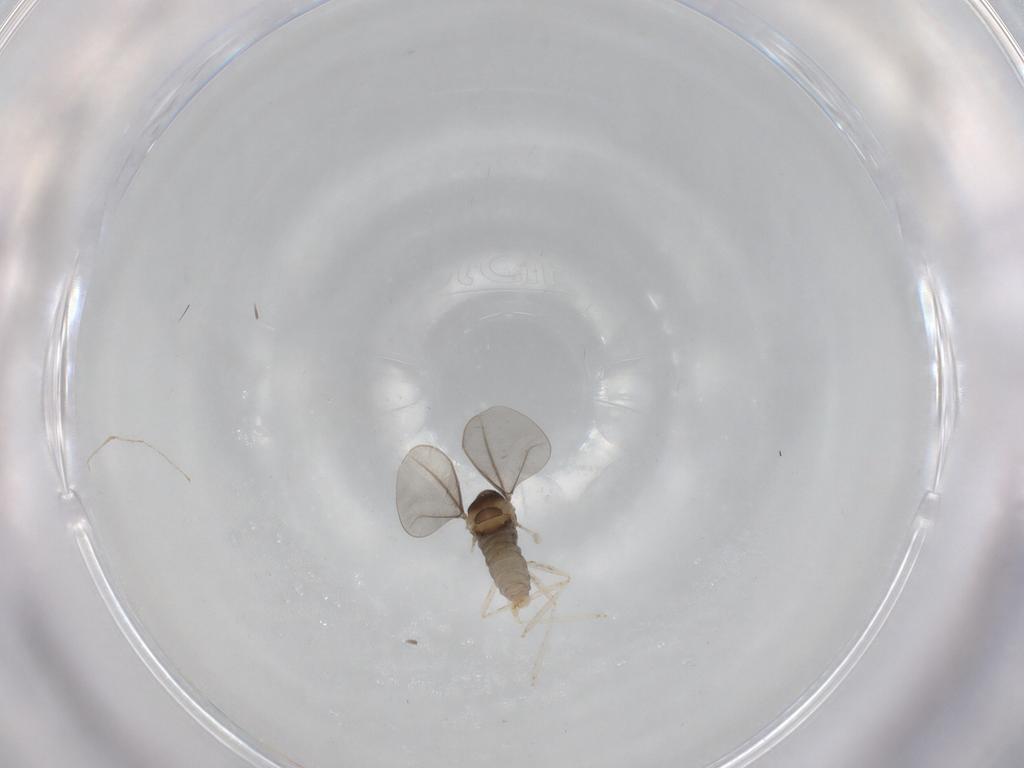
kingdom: Animalia
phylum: Arthropoda
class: Insecta
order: Diptera
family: Cecidomyiidae
